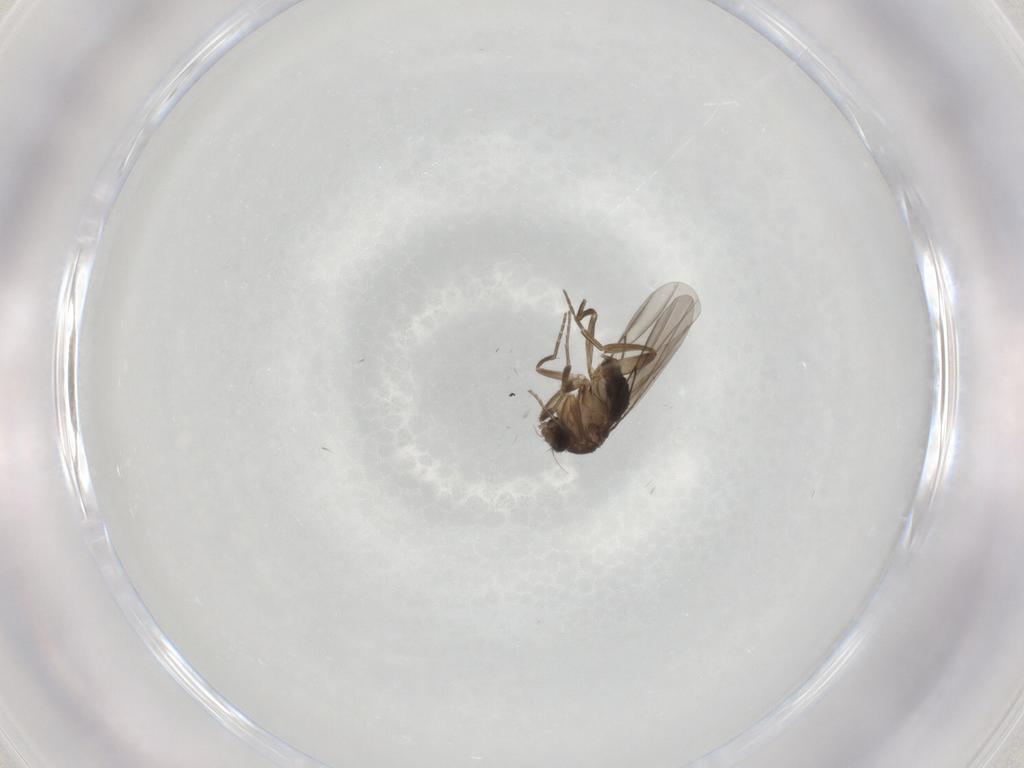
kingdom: Animalia
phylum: Arthropoda
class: Insecta
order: Diptera
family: Phoridae
